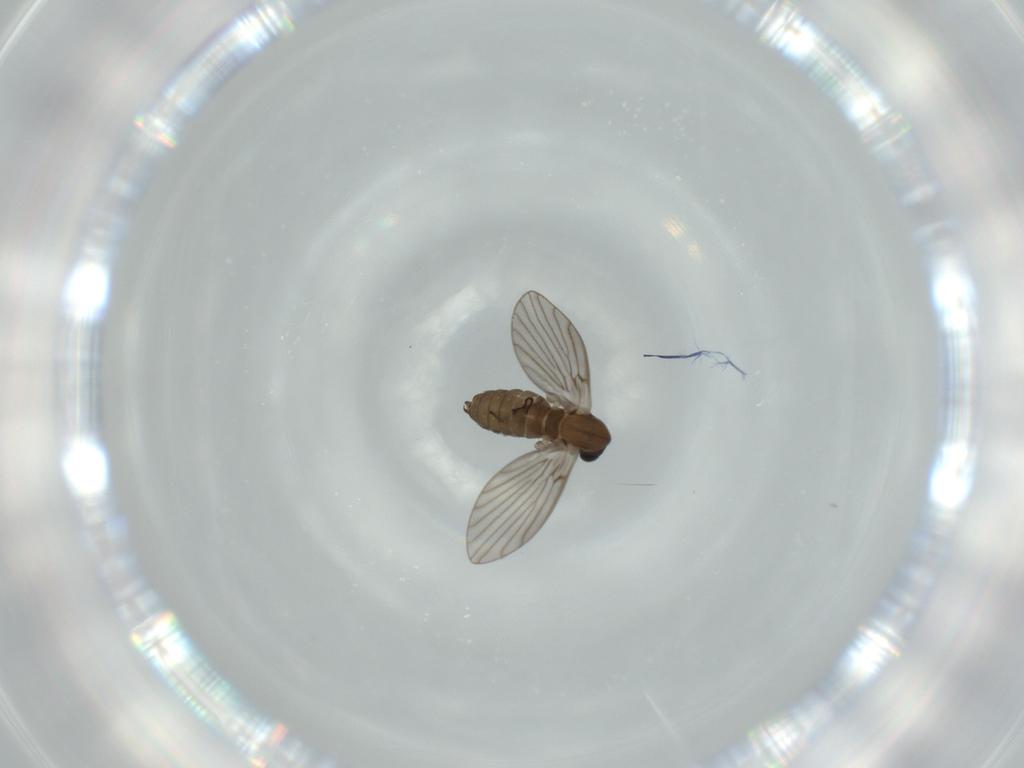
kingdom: Animalia
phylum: Arthropoda
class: Insecta
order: Diptera
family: Psychodidae
